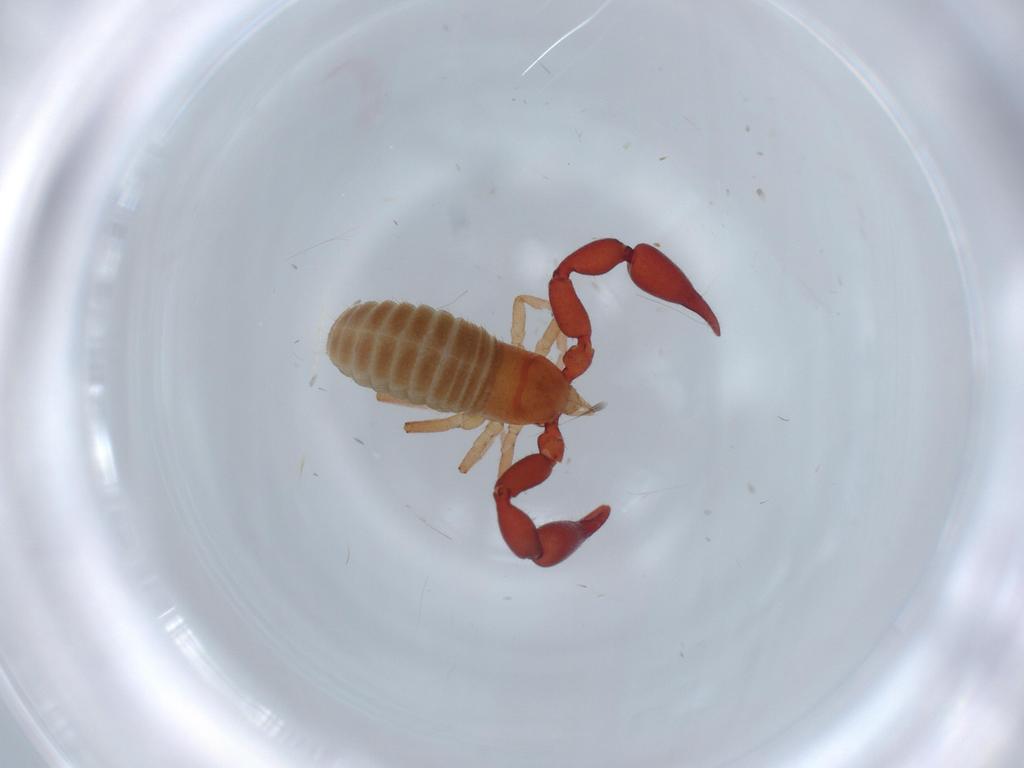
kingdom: Animalia
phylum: Arthropoda
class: Arachnida
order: Pseudoscorpiones
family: Chernetidae
